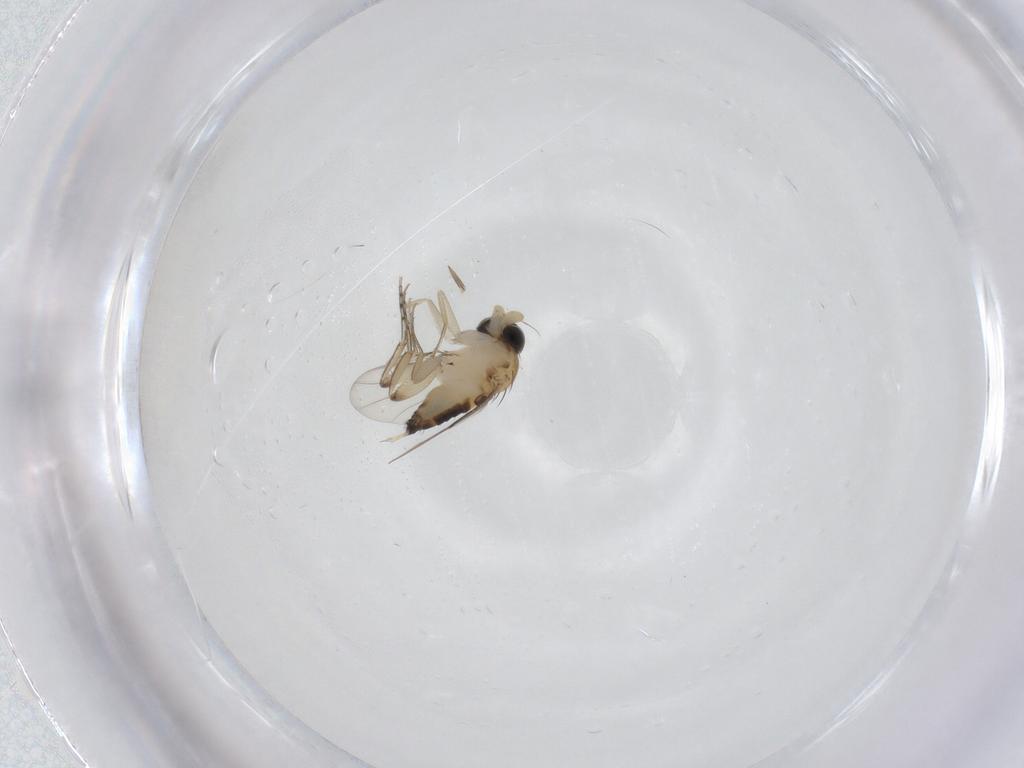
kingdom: Animalia
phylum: Arthropoda
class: Insecta
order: Diptera
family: Phoridae
